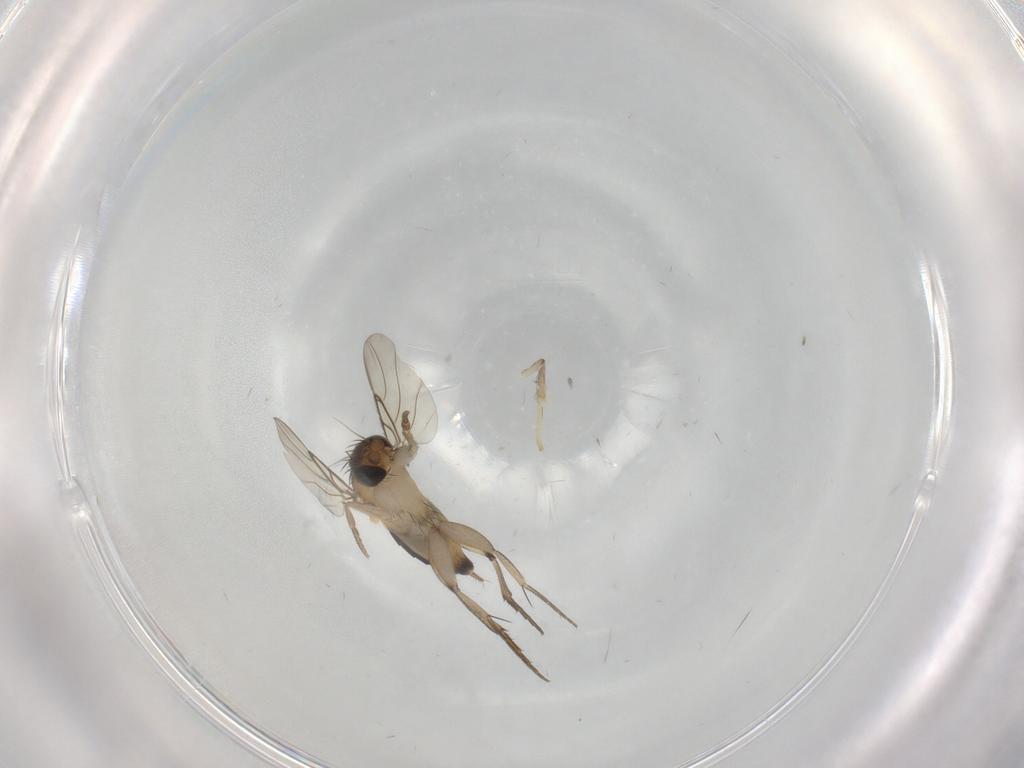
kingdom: Animalia
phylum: Arthropoda
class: Insecta
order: Diptera
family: Phoridae
